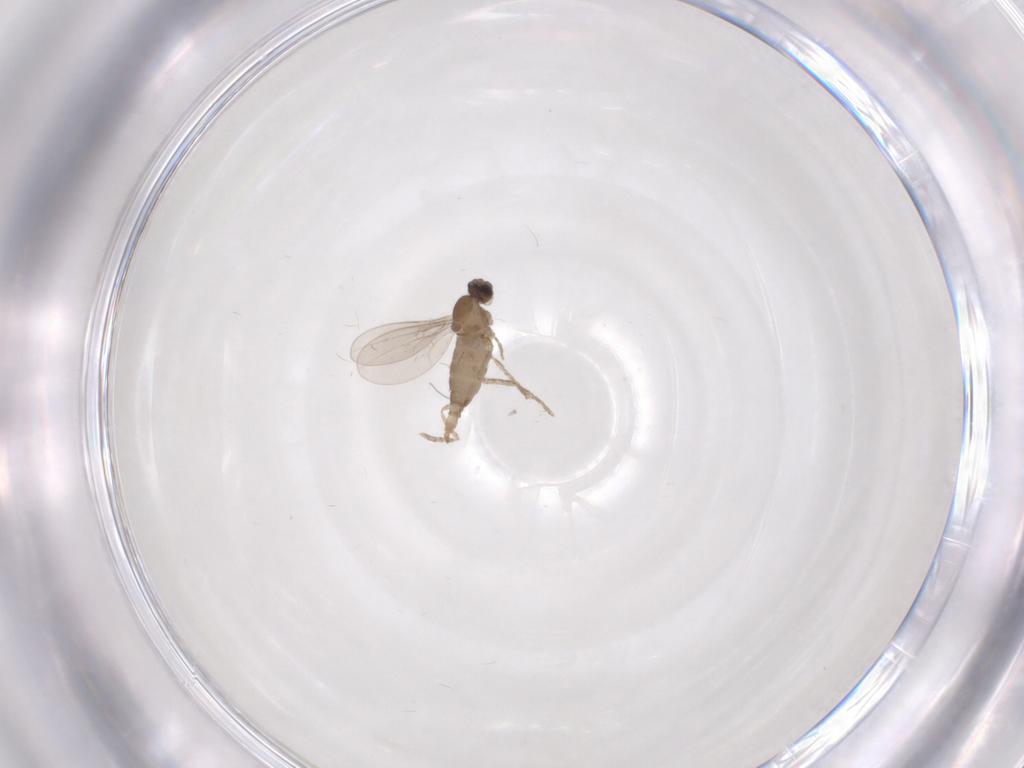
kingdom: Animalia
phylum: Arthropoda
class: Insecta
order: Diptera
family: Cecidomyiidae
